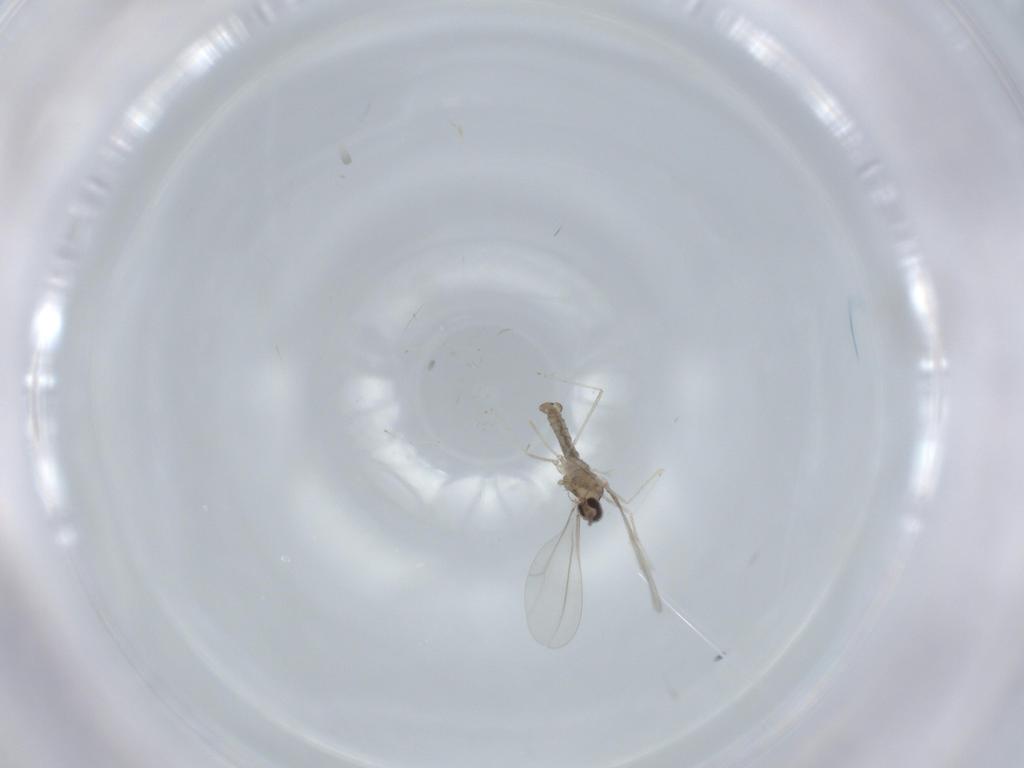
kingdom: Animalia
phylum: Arthropoda
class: Insecta
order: Diptera
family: Cecidomyiidae
